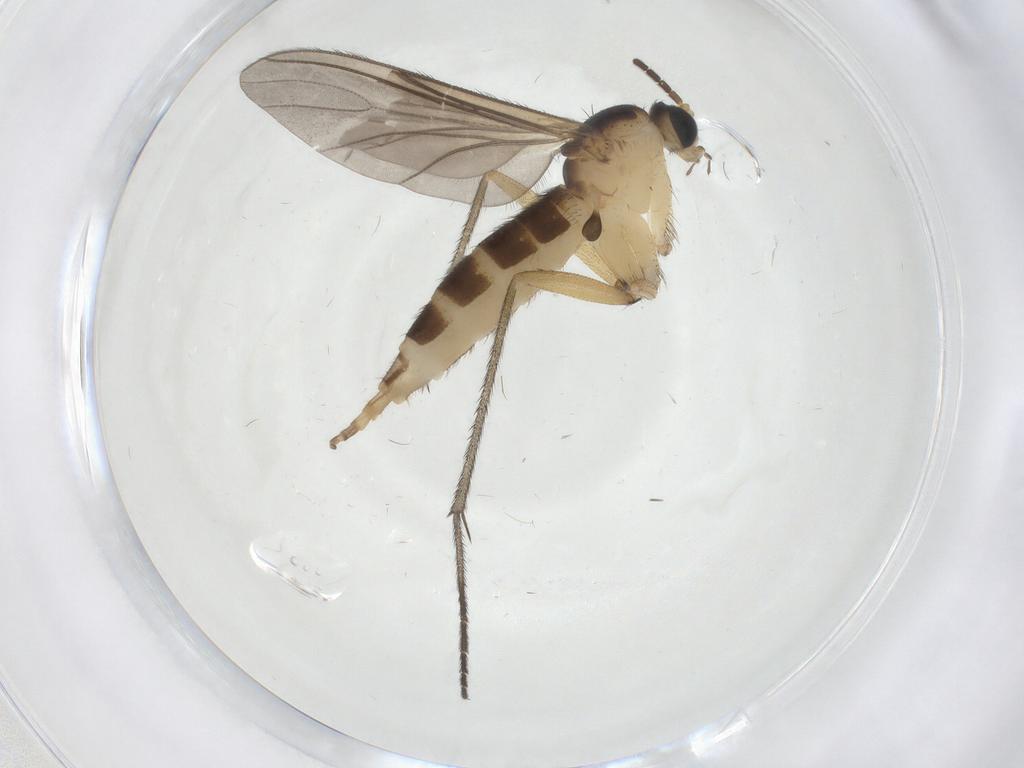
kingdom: Animalia
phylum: Arthropoda
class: Insecta
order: Diptera
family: Sciaridae
